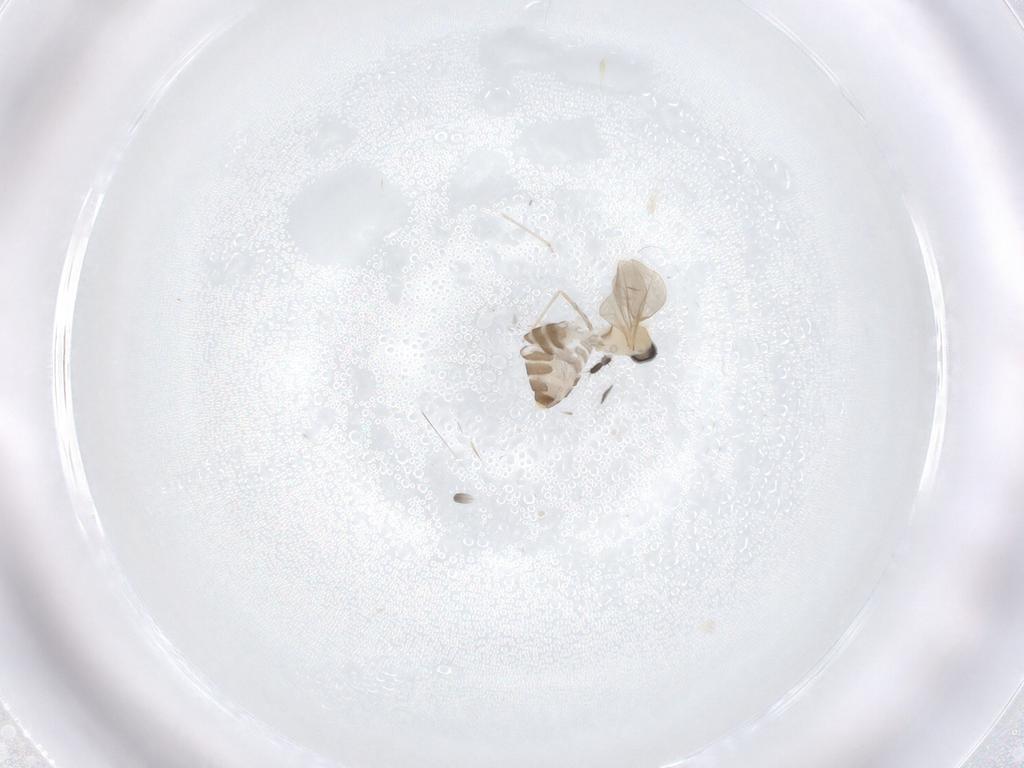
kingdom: Animalia
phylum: Arthropoda
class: Insecta
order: Diptera
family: Cecidomyiidae
